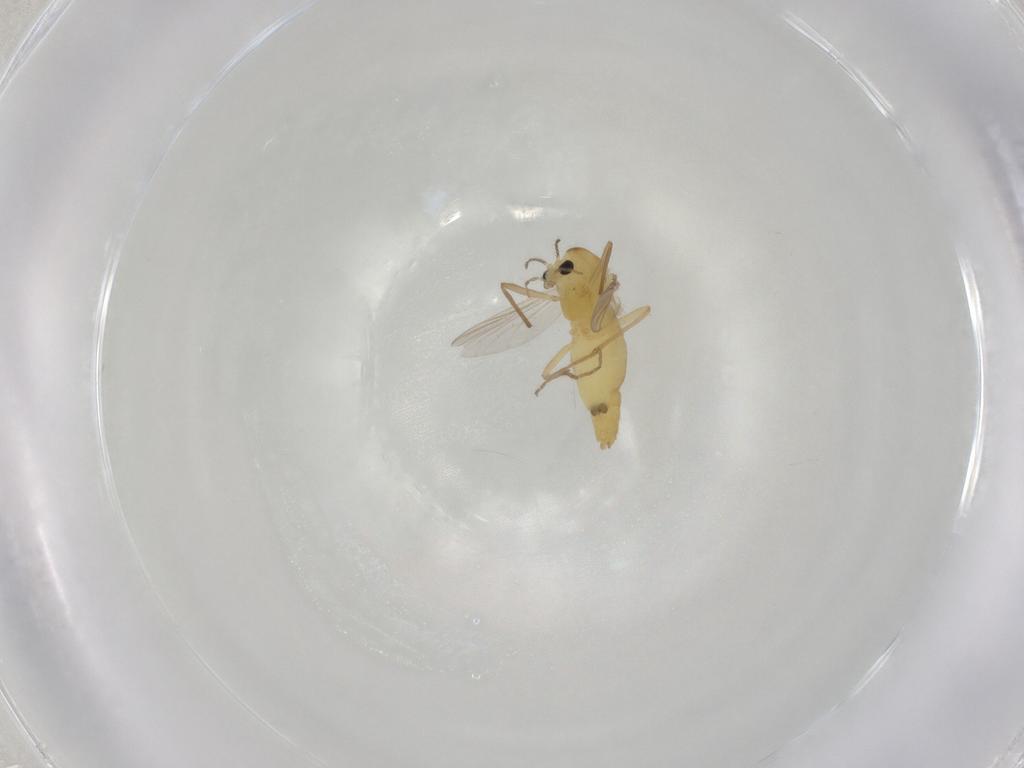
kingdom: Animalia
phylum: Arthropoda
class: Insecta
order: Diptera
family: Chironomidae
